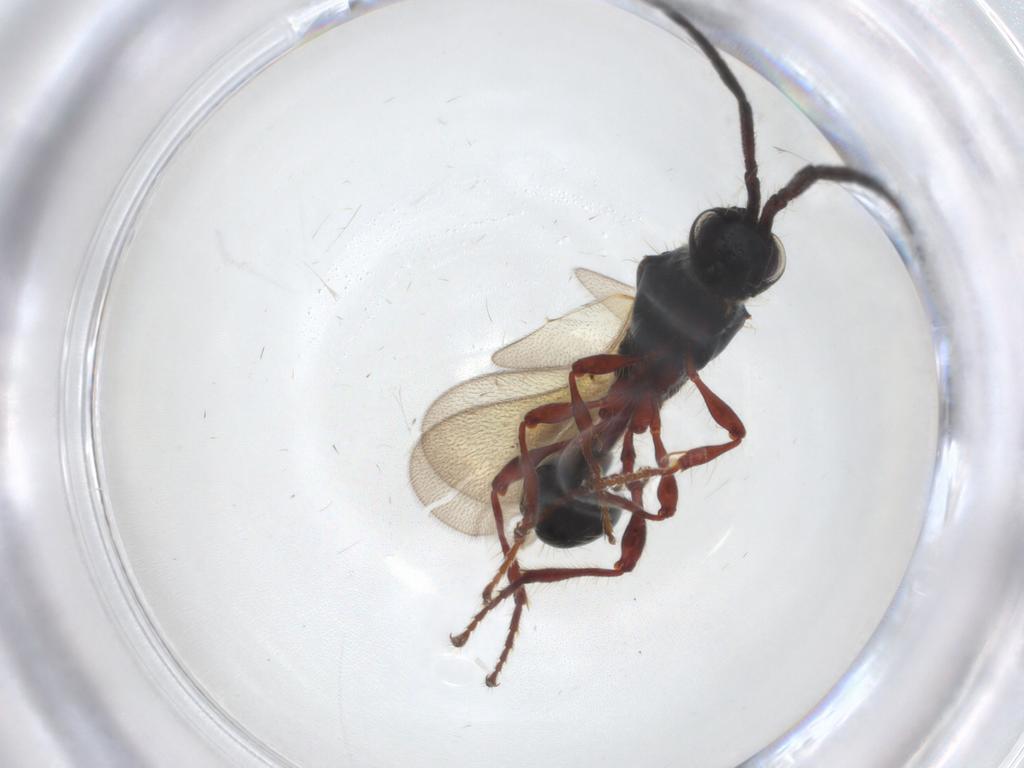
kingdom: Animalia
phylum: Arthropoda
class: Insecta
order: Hymenoptera
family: Diapriidae
